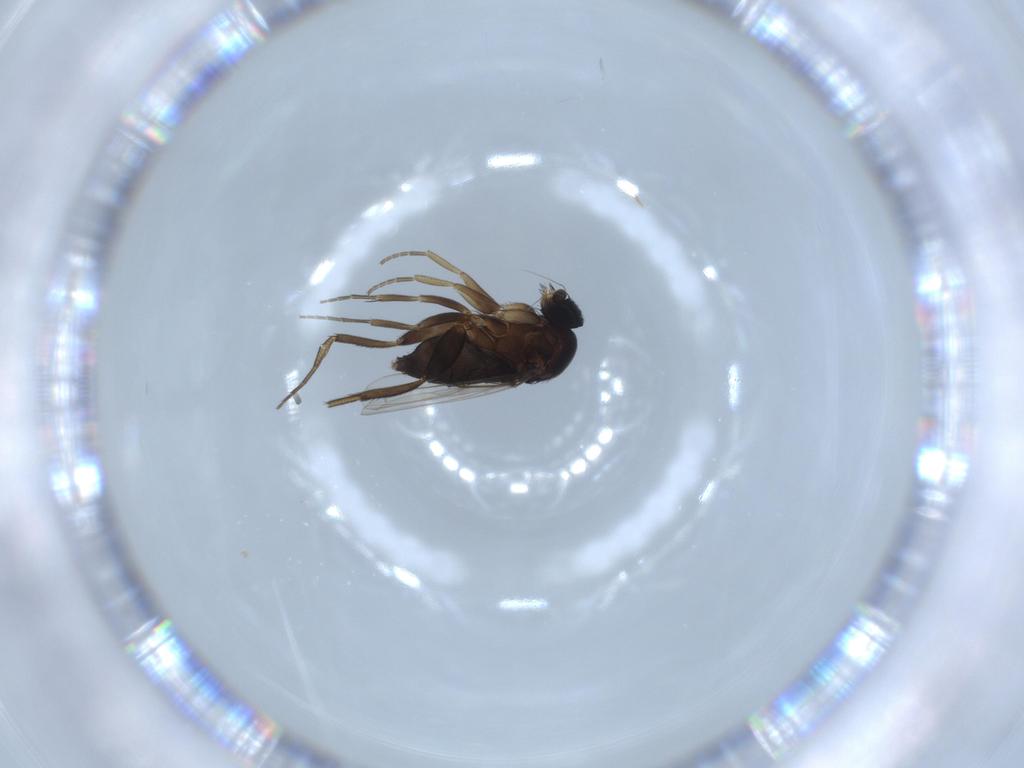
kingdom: Animalia
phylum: Arthropoda
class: Insecta
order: Diptera
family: Phoridae
